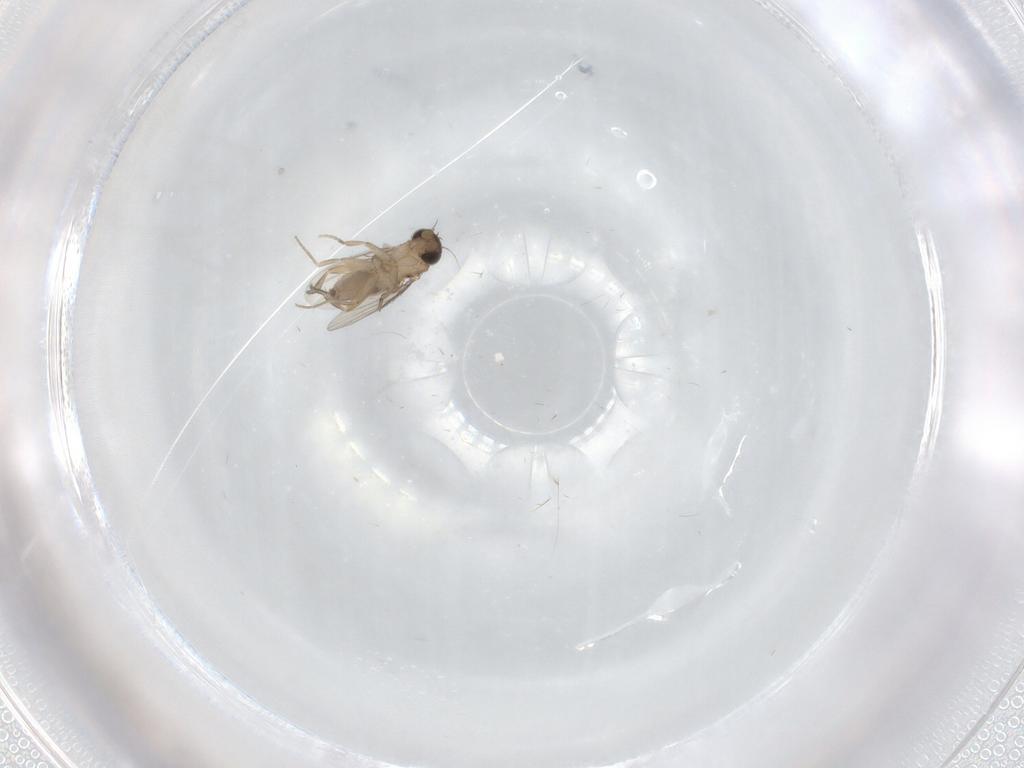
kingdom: Animalia
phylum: Arthropoda
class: Insecta
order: Diptera
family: Phoridae
